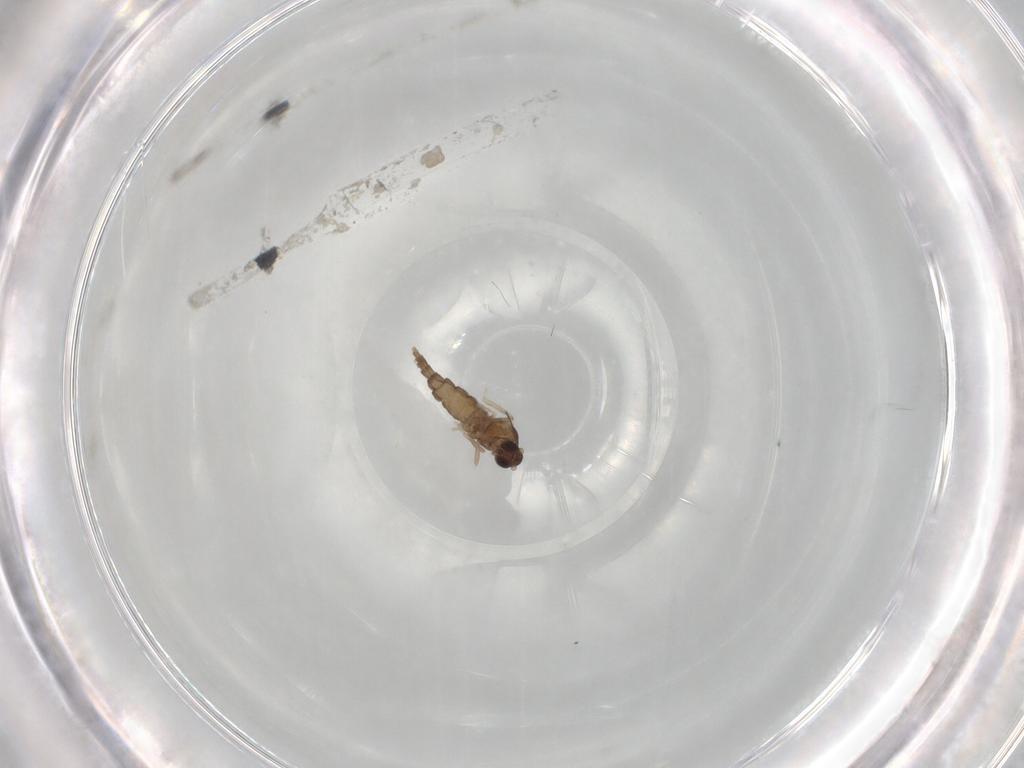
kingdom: Animalia
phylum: Arthropoda
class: Insecta
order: Diptera
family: Cecidomyiidae
